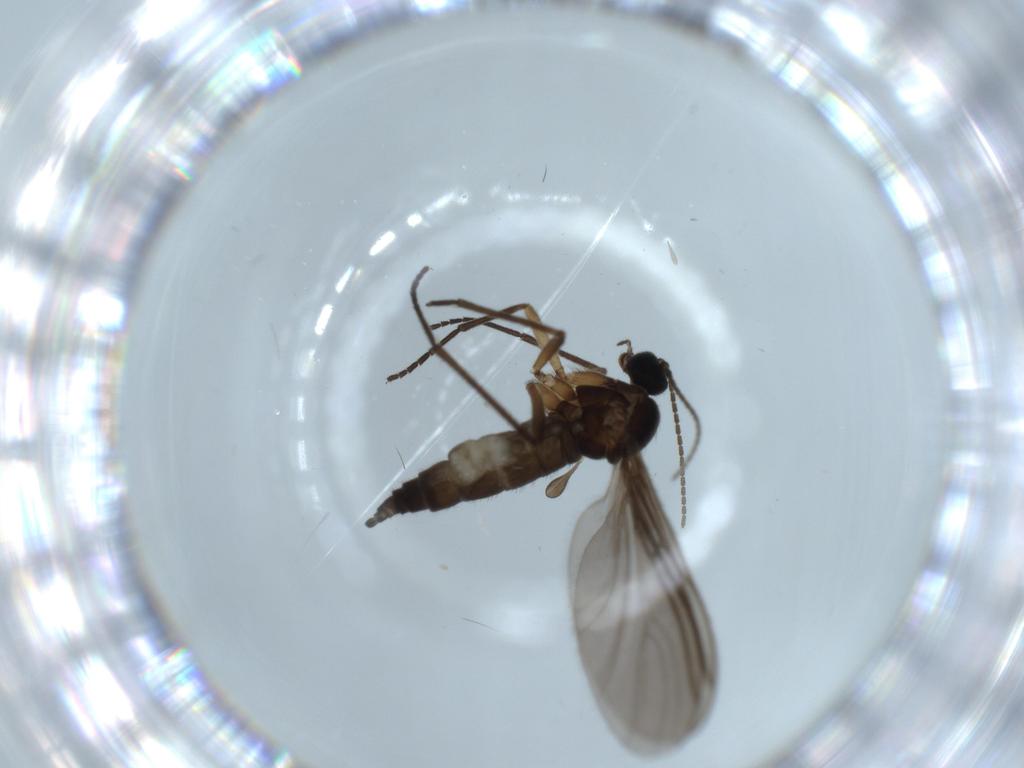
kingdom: Animalia
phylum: Arthropoda
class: Insecta
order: Diptera
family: Sciaridae
